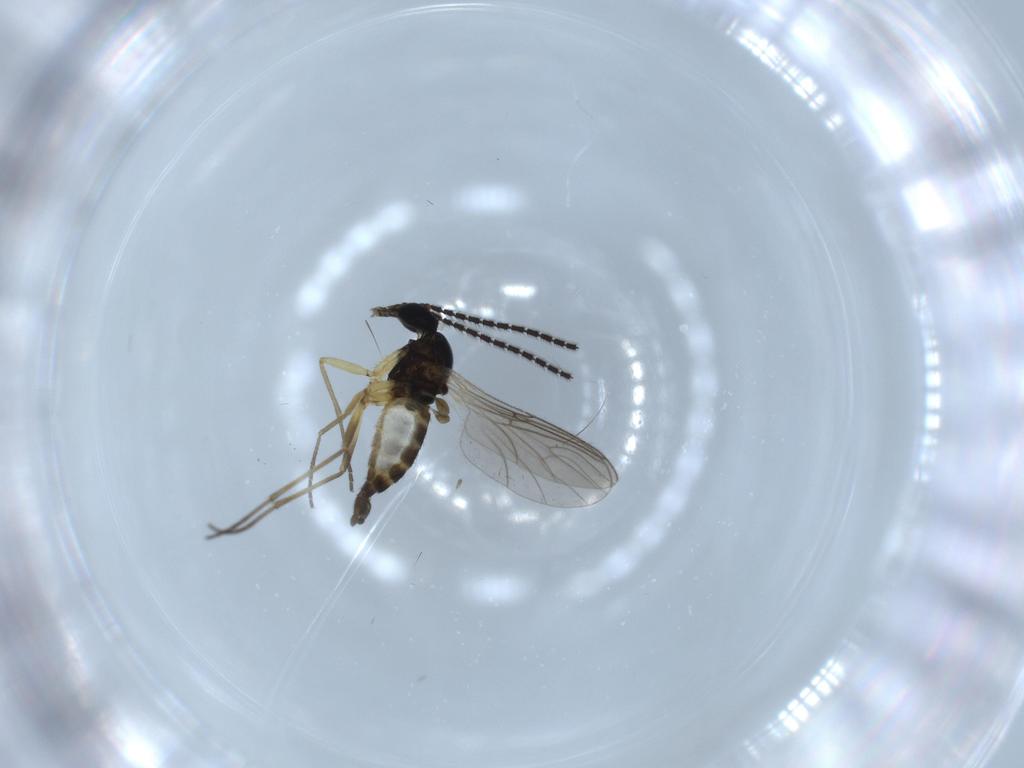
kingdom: Animalia
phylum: Arthropoda
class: Insecta
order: Diptera
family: Sciaridae
